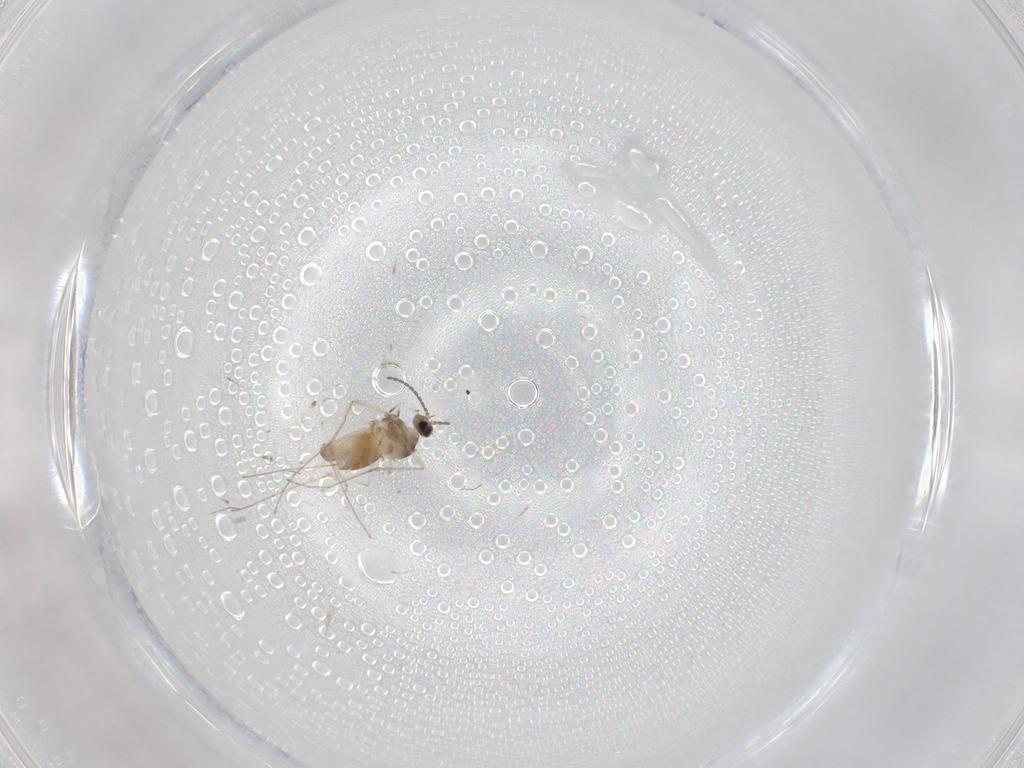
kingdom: Animalia
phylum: Arthropoda
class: Insecta
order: Diptera
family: Cecidomyiidae
